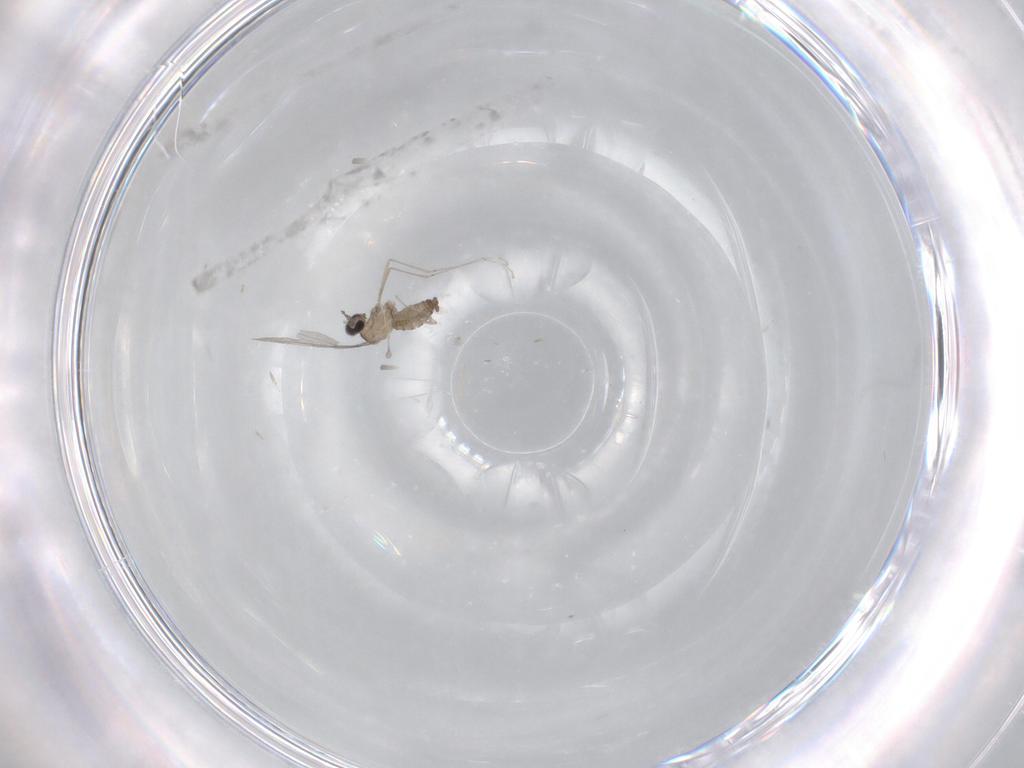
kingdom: Animalia
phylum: Arthropoda
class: Insecta
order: Diptera
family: Cecidomyiidae
